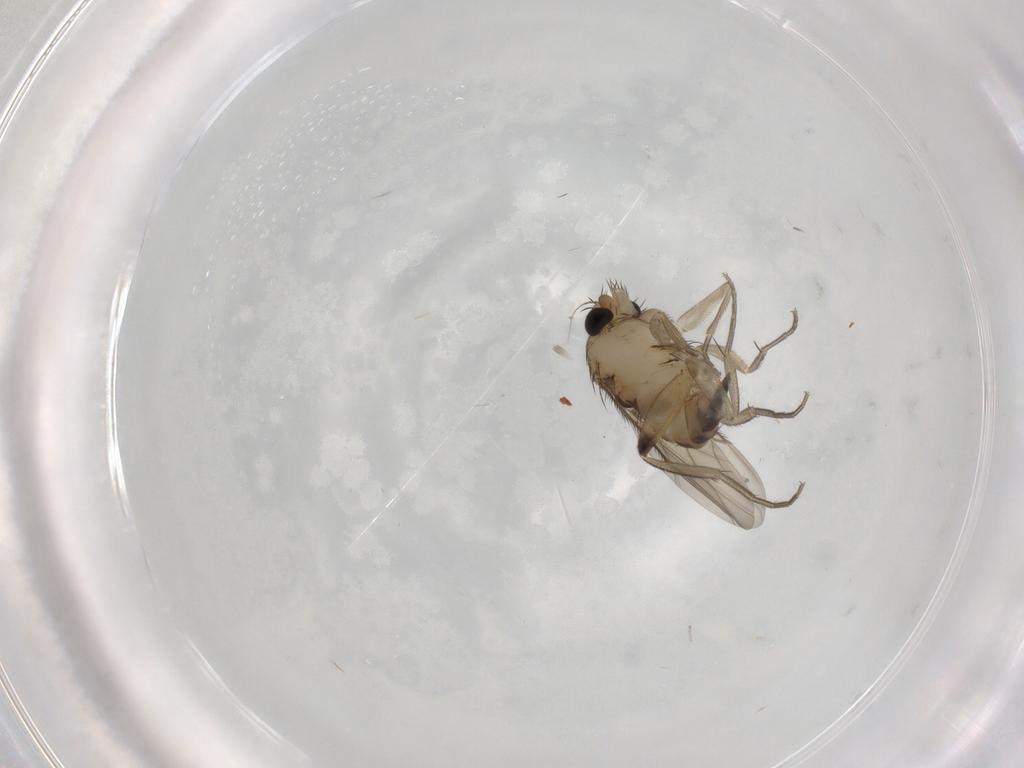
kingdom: Animalia
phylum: Arthropoda
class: Insecta
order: Diptera
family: Phoridae
